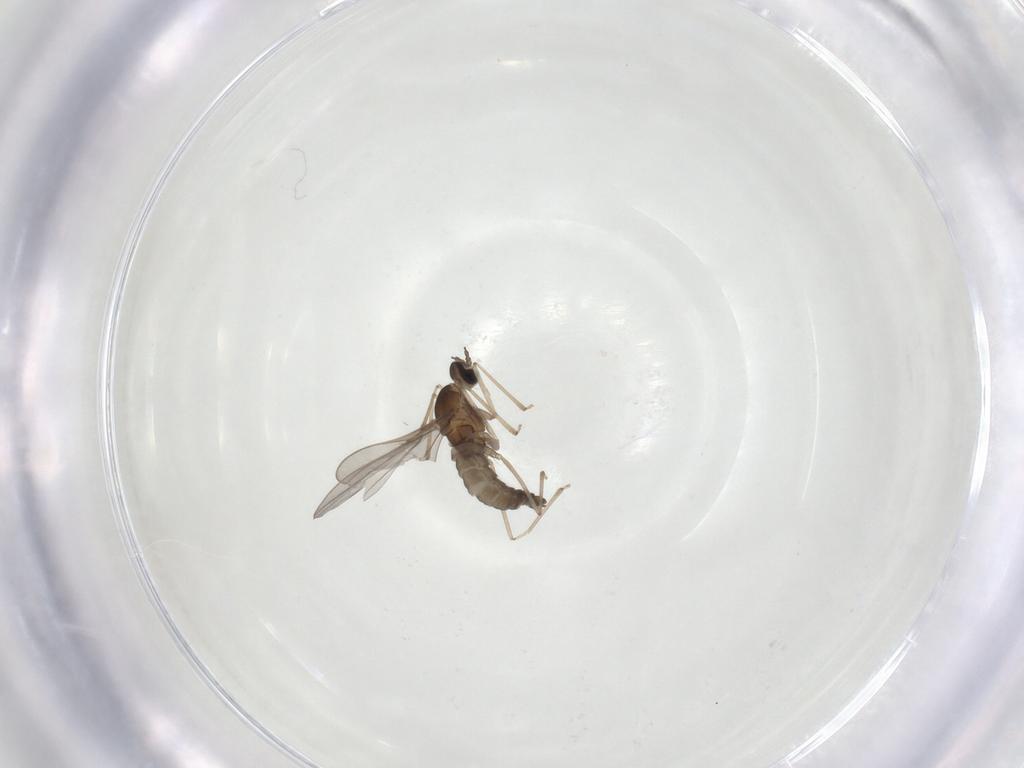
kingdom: Animalia
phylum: Arthropoda
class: Insecta
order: Diptera
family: Cecidomyiidae
